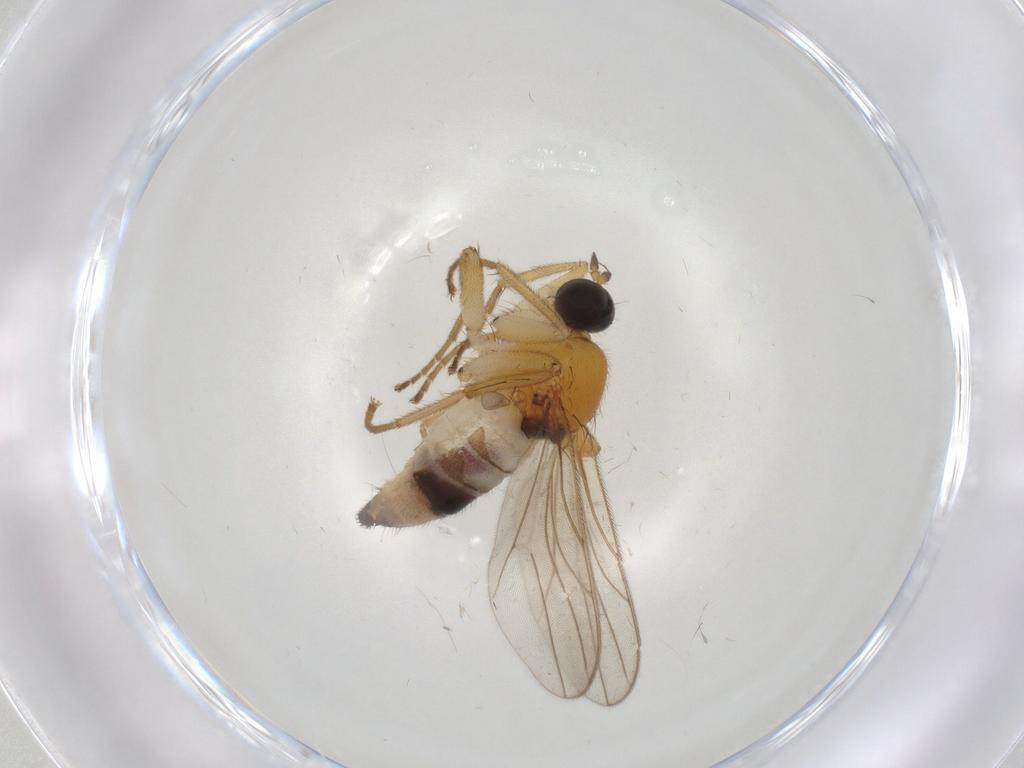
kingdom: Animalia
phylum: Arthropoda
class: Insecta
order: Diptera
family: Hybotidae
